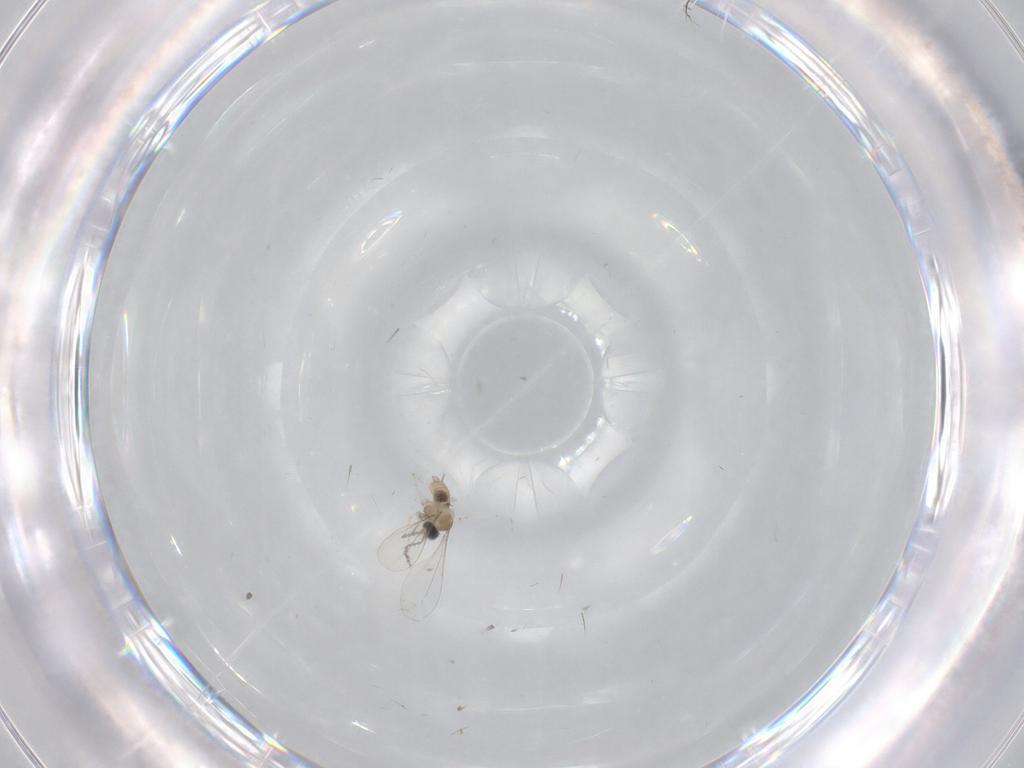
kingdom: Animalia
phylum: Arthropoda
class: Insecta
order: Diptera
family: Cecidomyiidae
